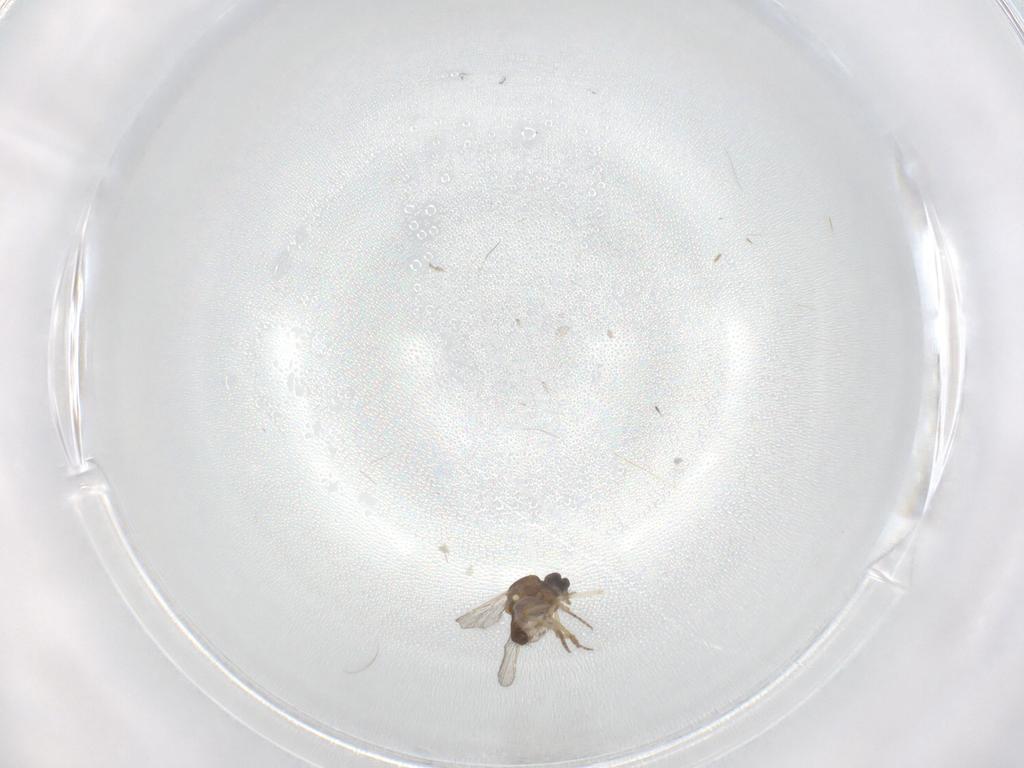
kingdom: Animalia
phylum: Arthropoda
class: Insecta
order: Diptera
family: Ceratopogonidae
